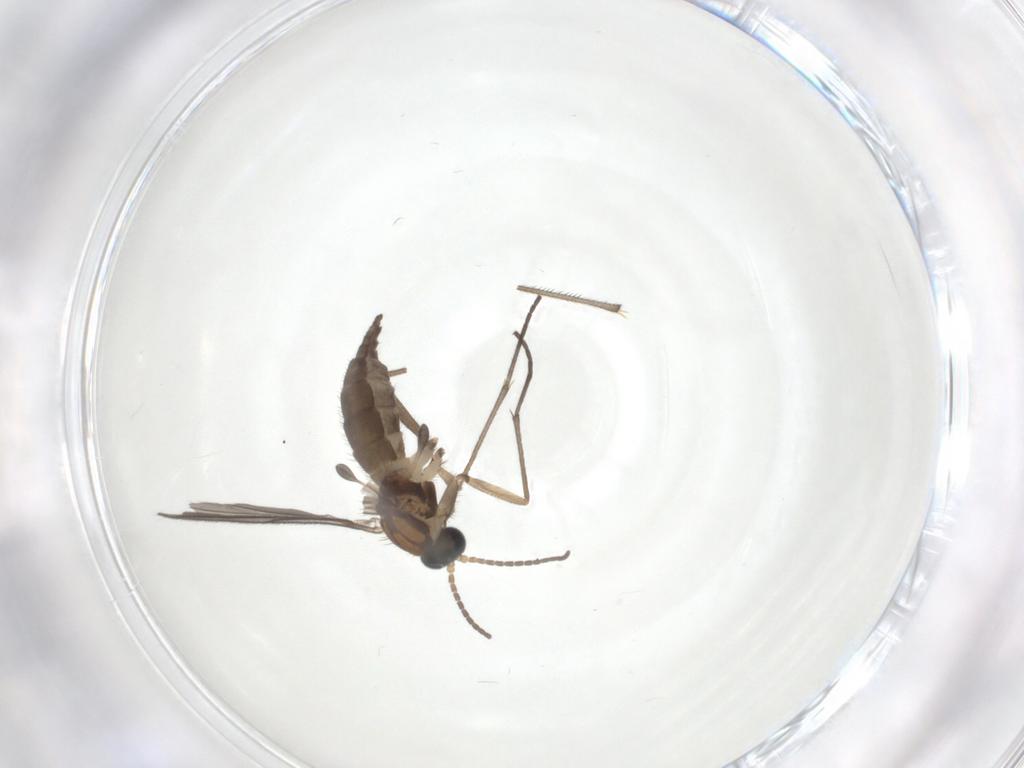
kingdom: Animalia
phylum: Arthropoda
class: Insecta
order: Diptera
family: Sciaridae
